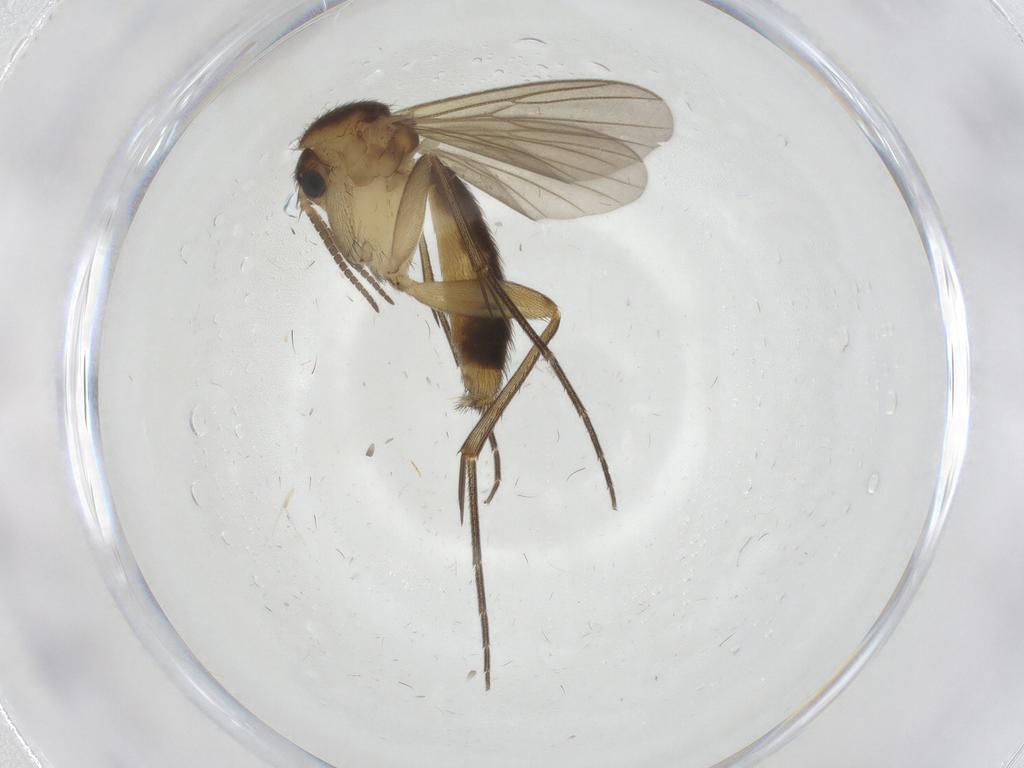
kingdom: Animalia
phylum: Arthropoda
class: Insecta
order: Diptera
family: Mycetophilidae
